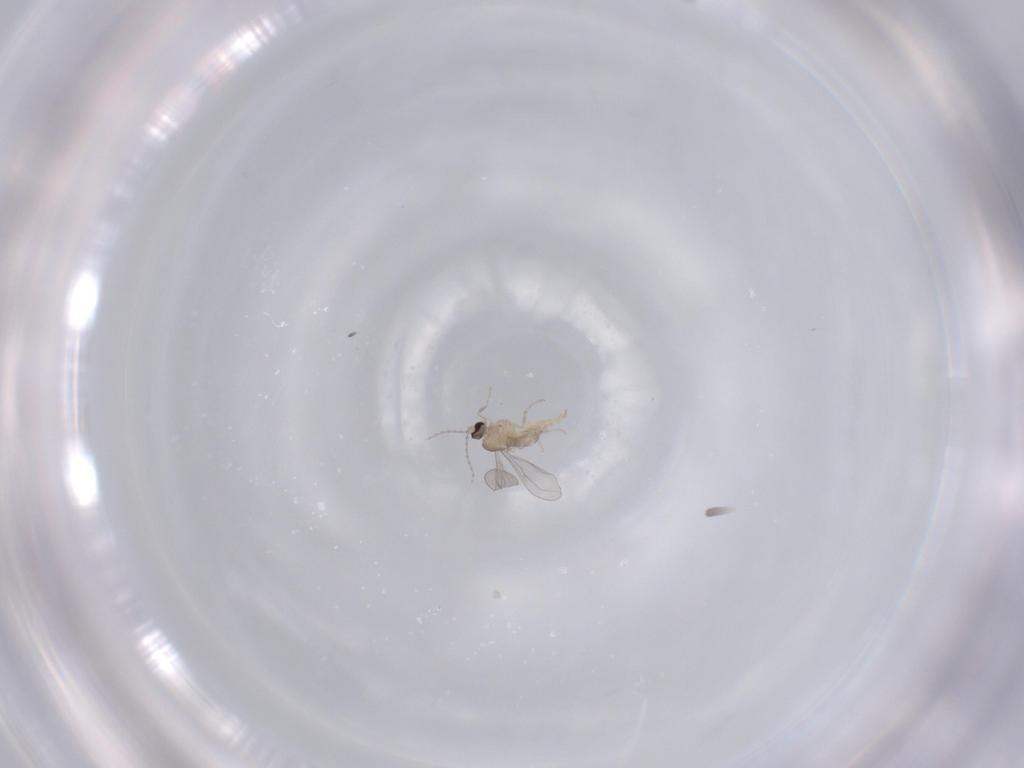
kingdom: Animalia
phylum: Arthropoda
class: Insecta
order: Diptera
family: Cecidomyiidae
